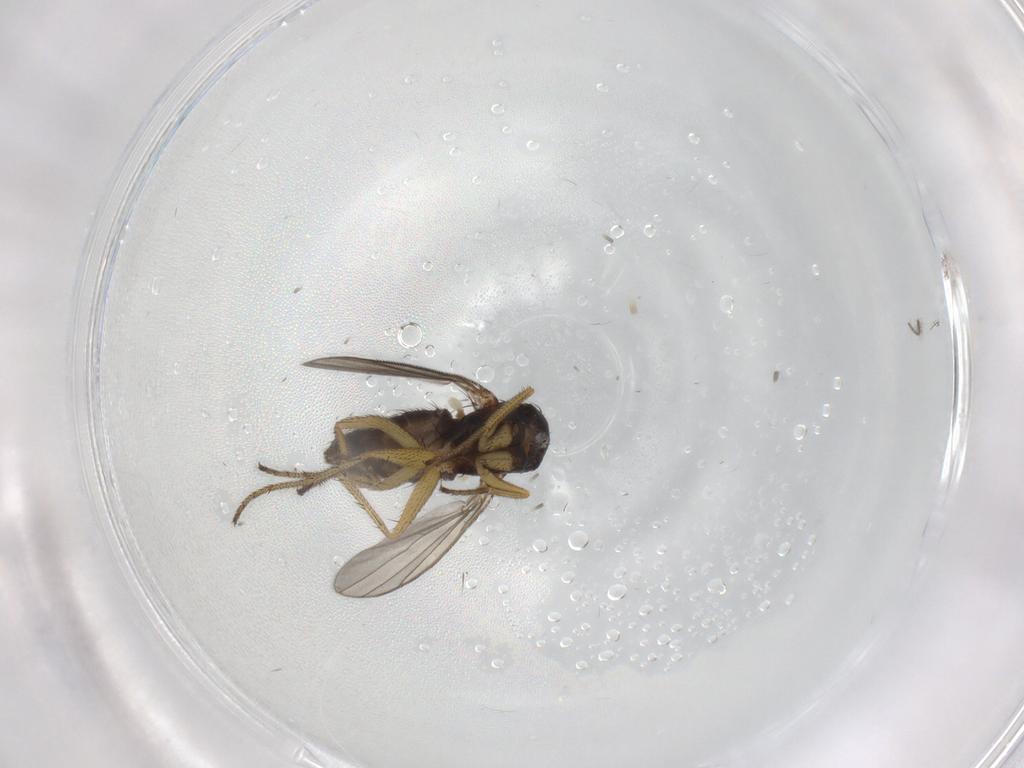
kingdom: Animalia
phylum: Arthropoda
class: Insecta
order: Diptera
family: Dolichopodidae
